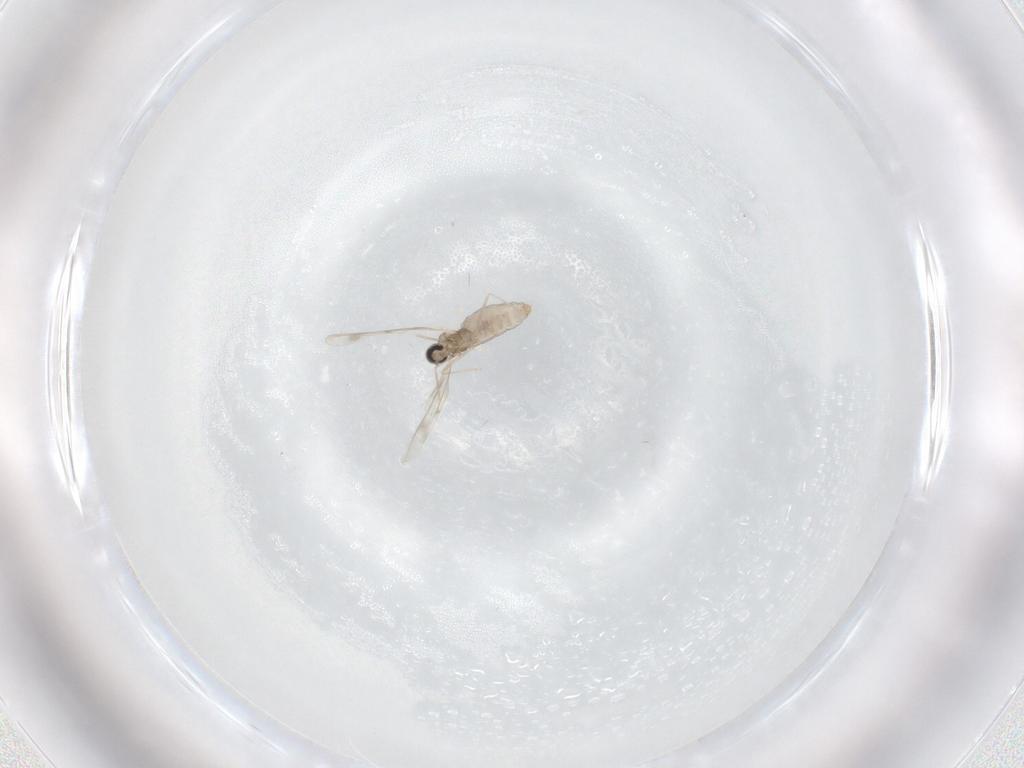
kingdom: Animalia
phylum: Arthropoda
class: Insecta
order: Diptera
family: Cecidomyiidae
